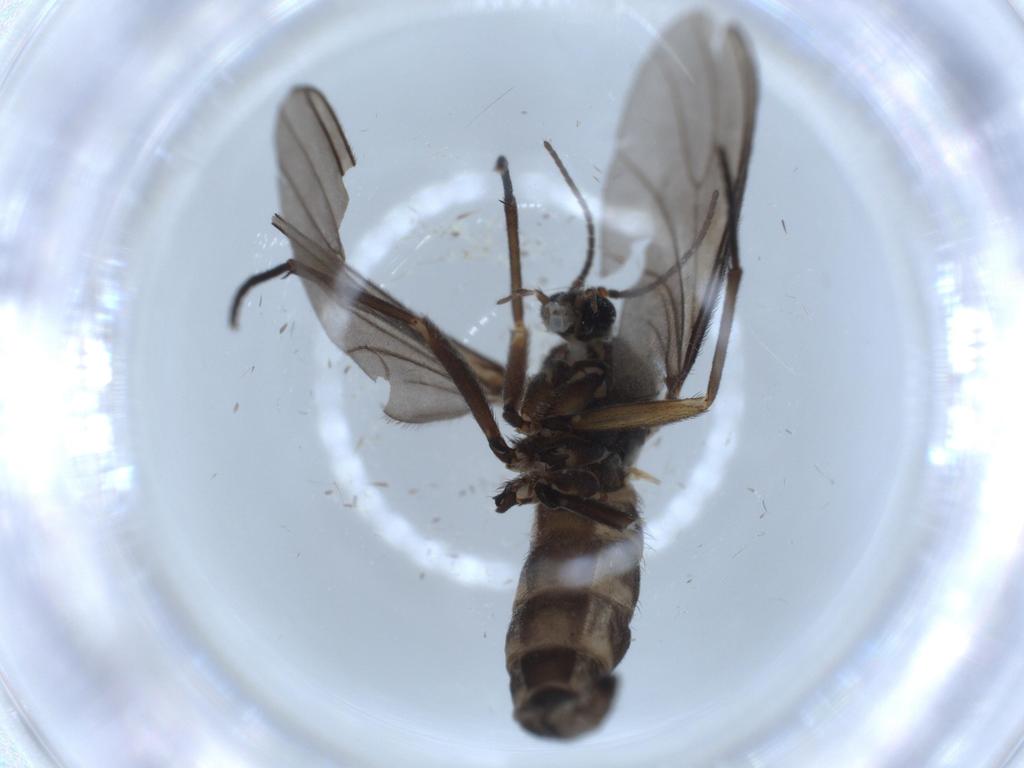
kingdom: Animalia
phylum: Arthropoda
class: Insecta
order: Diptera
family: Sciaridae
